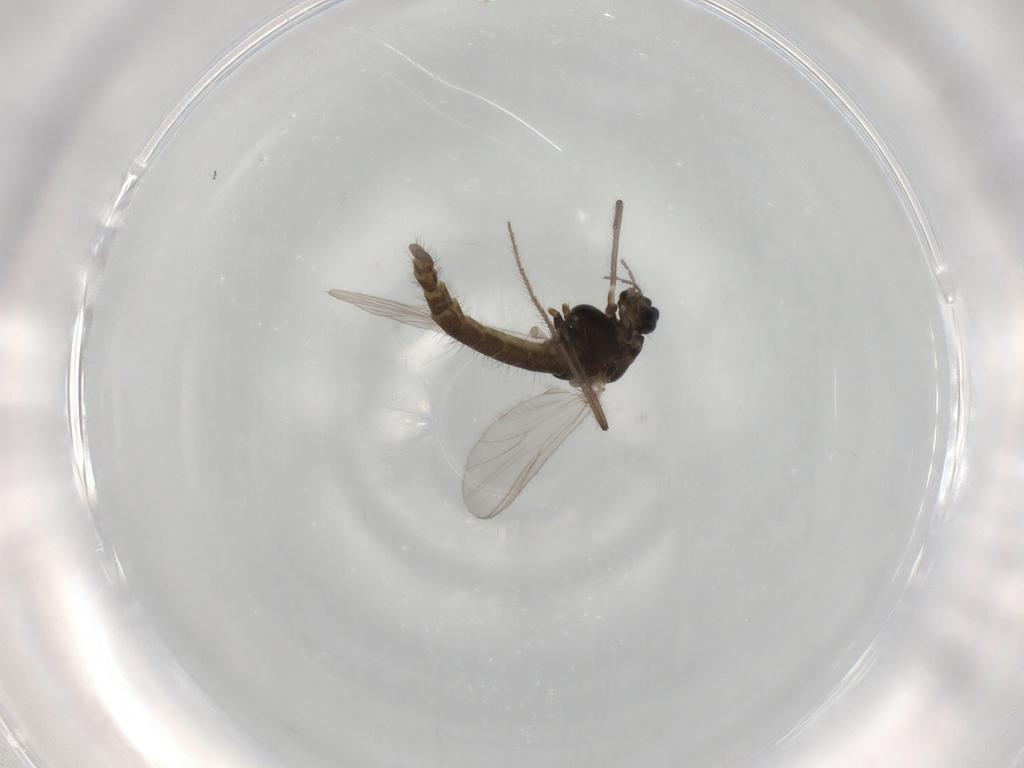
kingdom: Animalia
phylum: Arthropoda
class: Insecta
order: Diptera
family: Chironomidae
